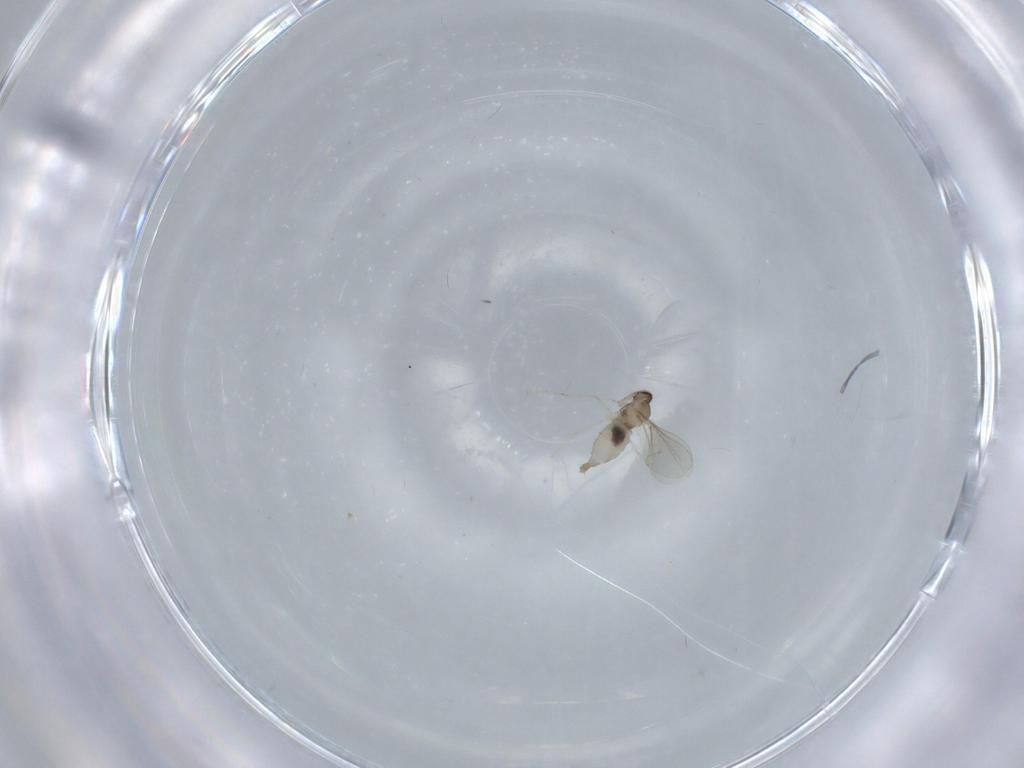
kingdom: Animalia
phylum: Arthropoda
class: Insecta
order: Diptera
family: Cecidomyiidae
